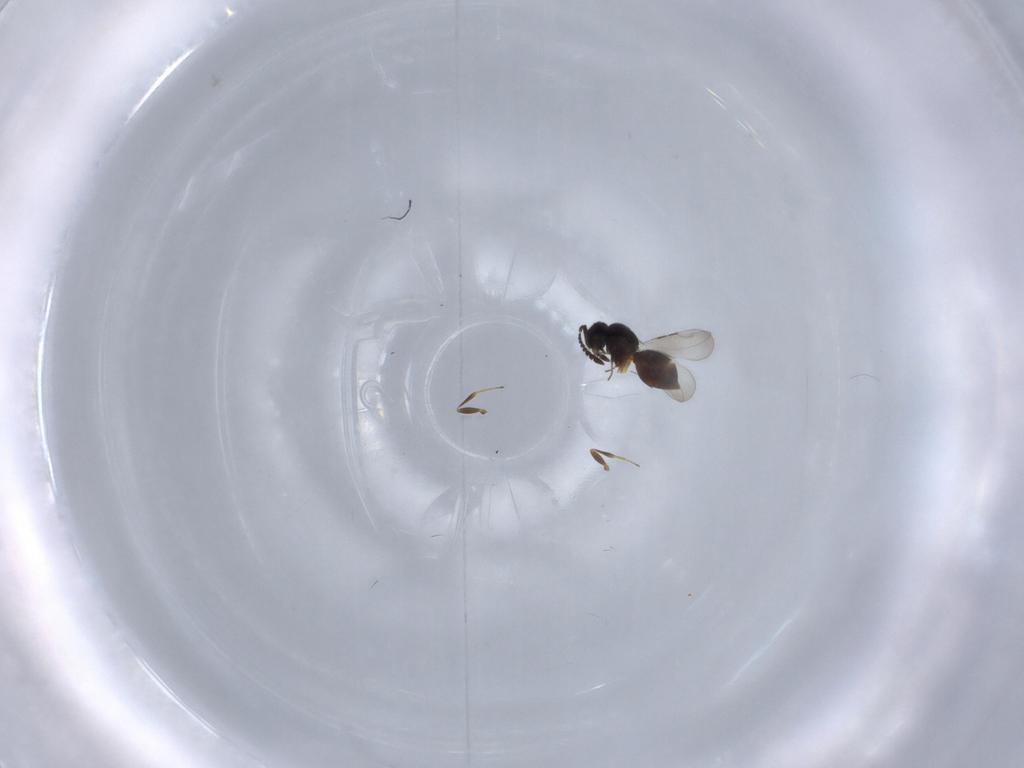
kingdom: Animalia
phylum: Arthropoda
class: Insecta
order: Hymenoptera
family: Ceraphronidae
